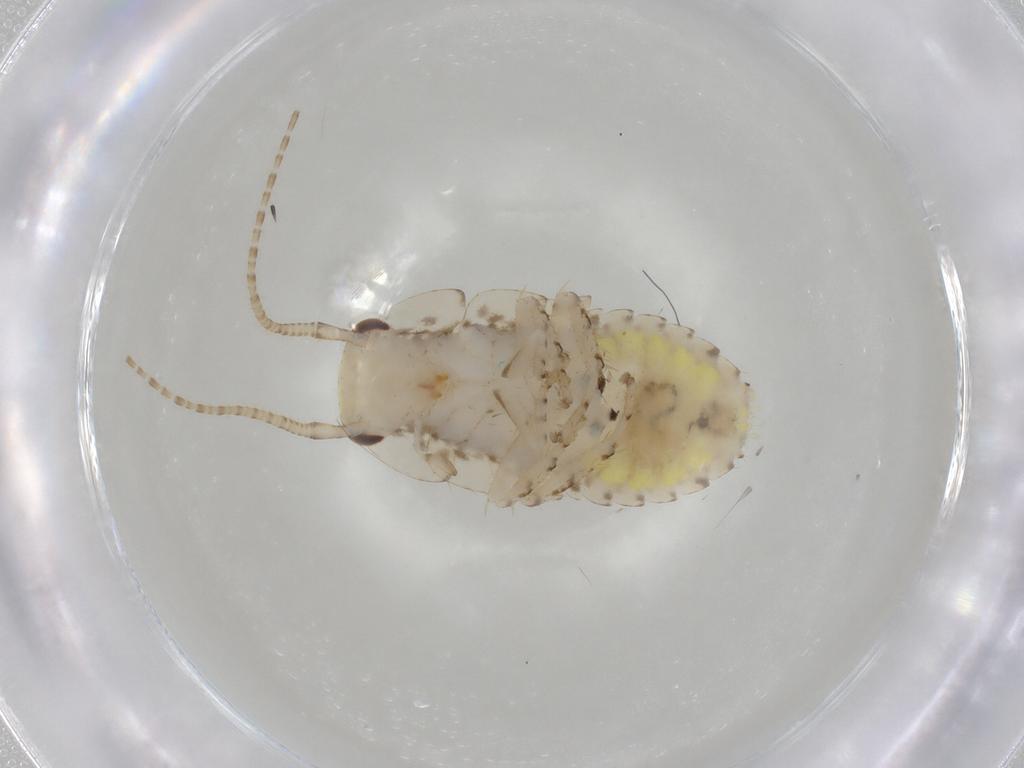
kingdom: Animalia
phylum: Arthropoda
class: Insecta
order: Blattodea
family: Ectobiidae
